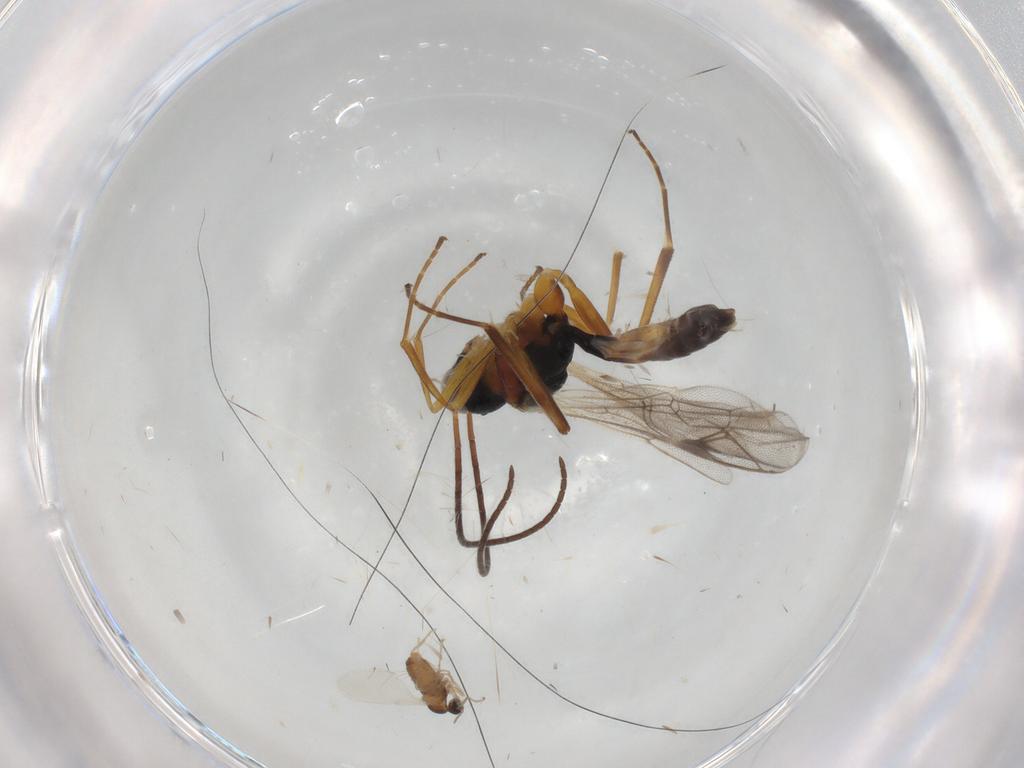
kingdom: Animalia
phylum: Arthropoda
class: Insecta
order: Hymenoptera
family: Ichneumonidae
